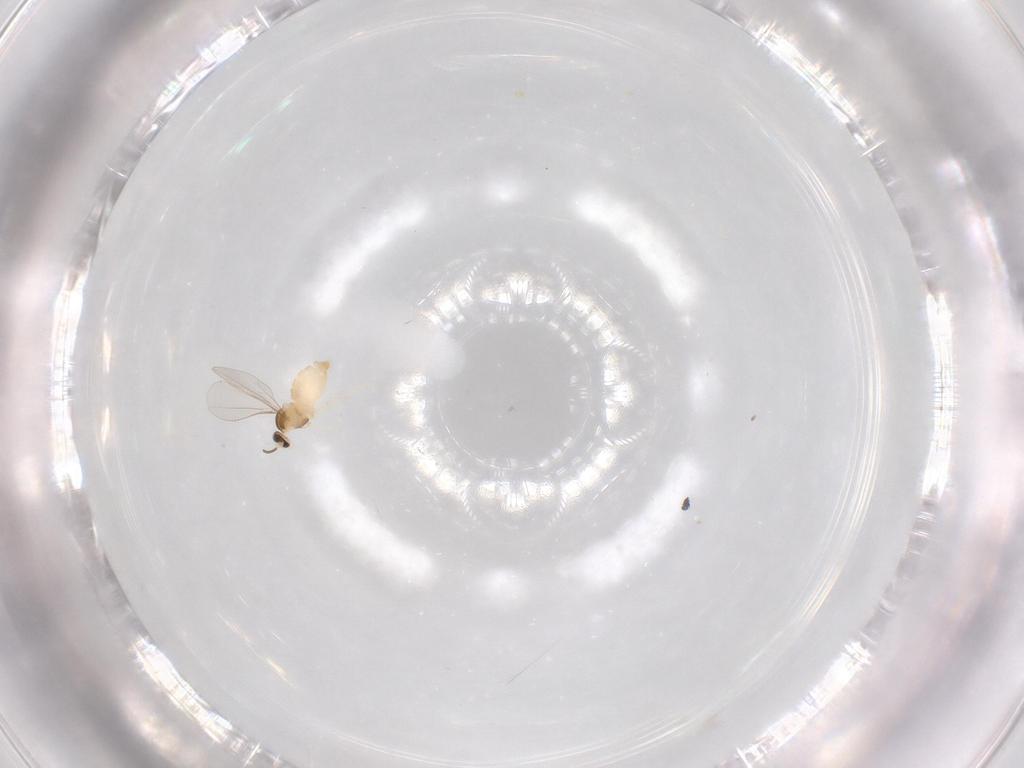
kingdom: Animalia
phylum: Arthropoda
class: Insecta
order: Diptera
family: Cecidomyiidae
